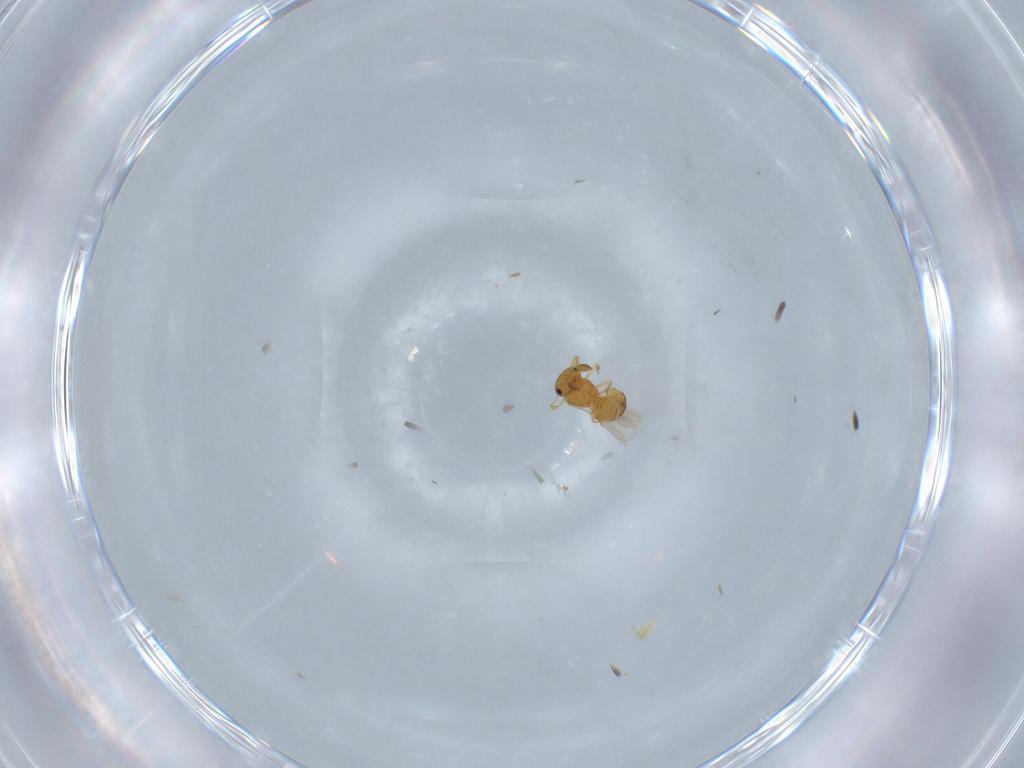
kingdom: Animalia
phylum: Arthropoda
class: Insecta
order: Hymenoptera
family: Scelionidae
